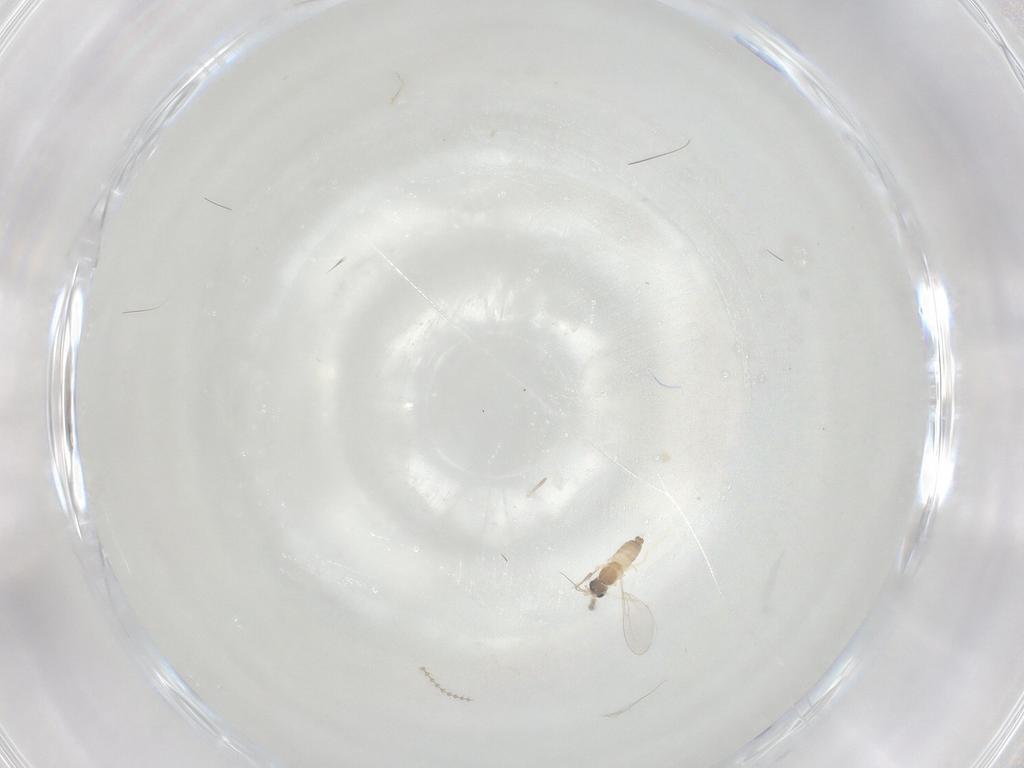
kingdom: Animalia
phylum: Arthropoda
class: Insecta
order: Diptera
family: Cecidomyiidae
